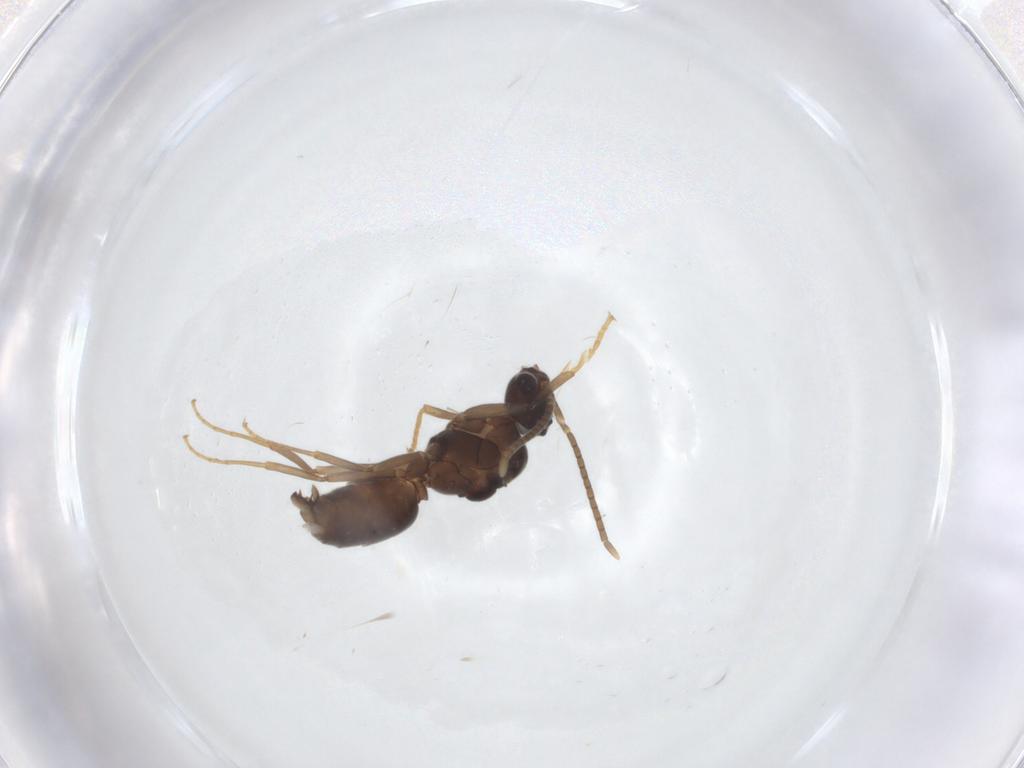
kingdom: Animalia
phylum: Arthropoda
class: Insecta
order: Hymenoptera
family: Formicidae
